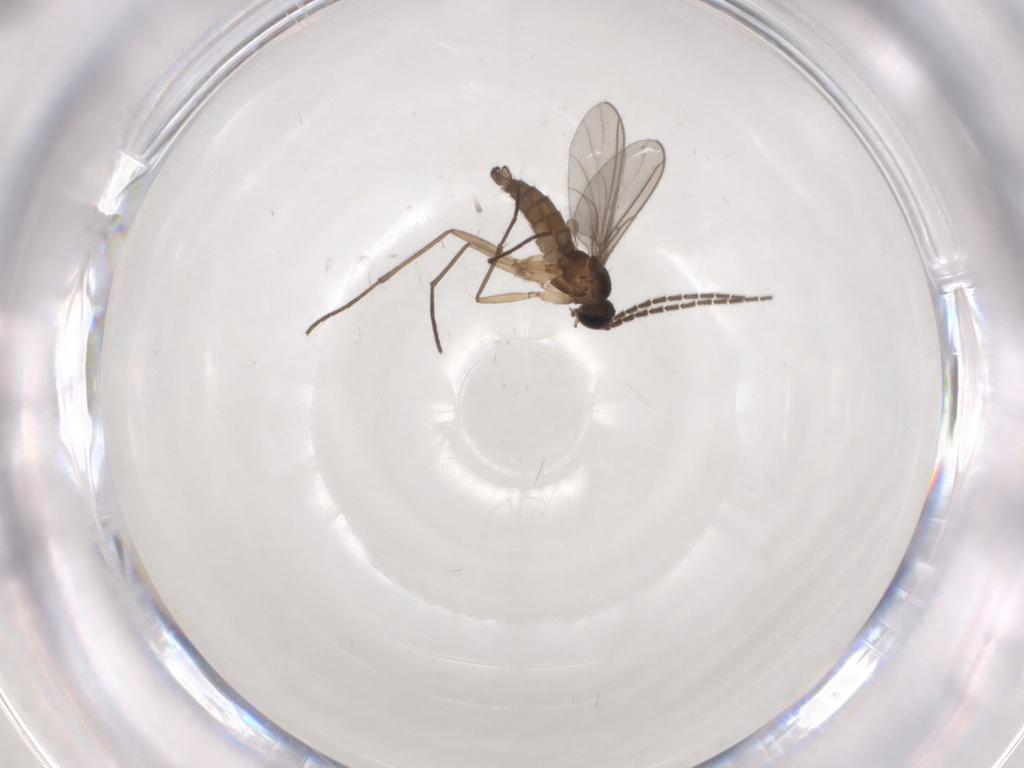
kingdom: Animalia
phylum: Arthropoda
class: Insecta
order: Diptera
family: Sciaridae
